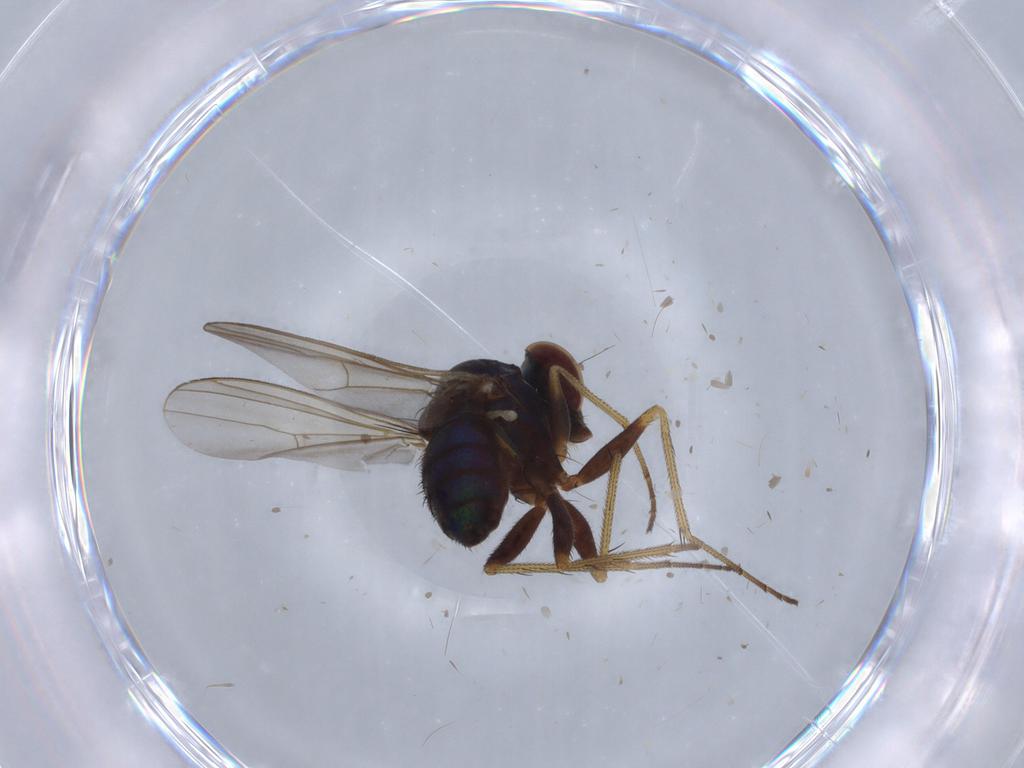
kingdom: Animalia
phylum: Arthropoda
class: Insecta
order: Diptera
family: Dolichopodidae
